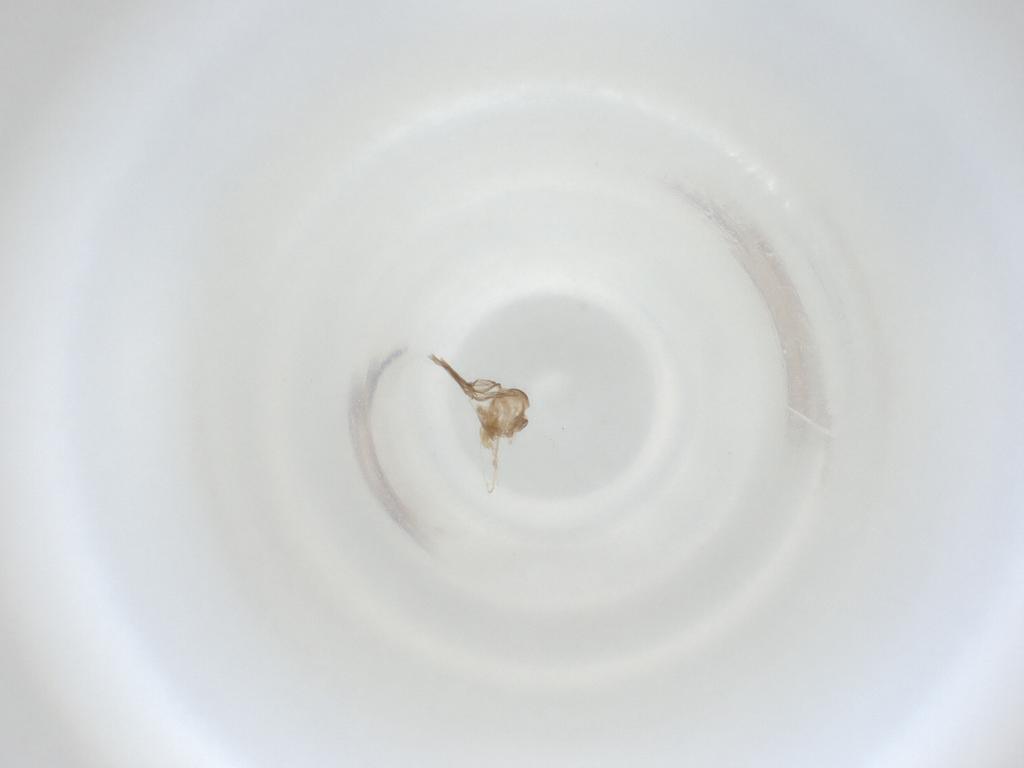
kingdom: Animalia
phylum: Arthropoda
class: Insecta
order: Diptera
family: Cecidomyiidae
